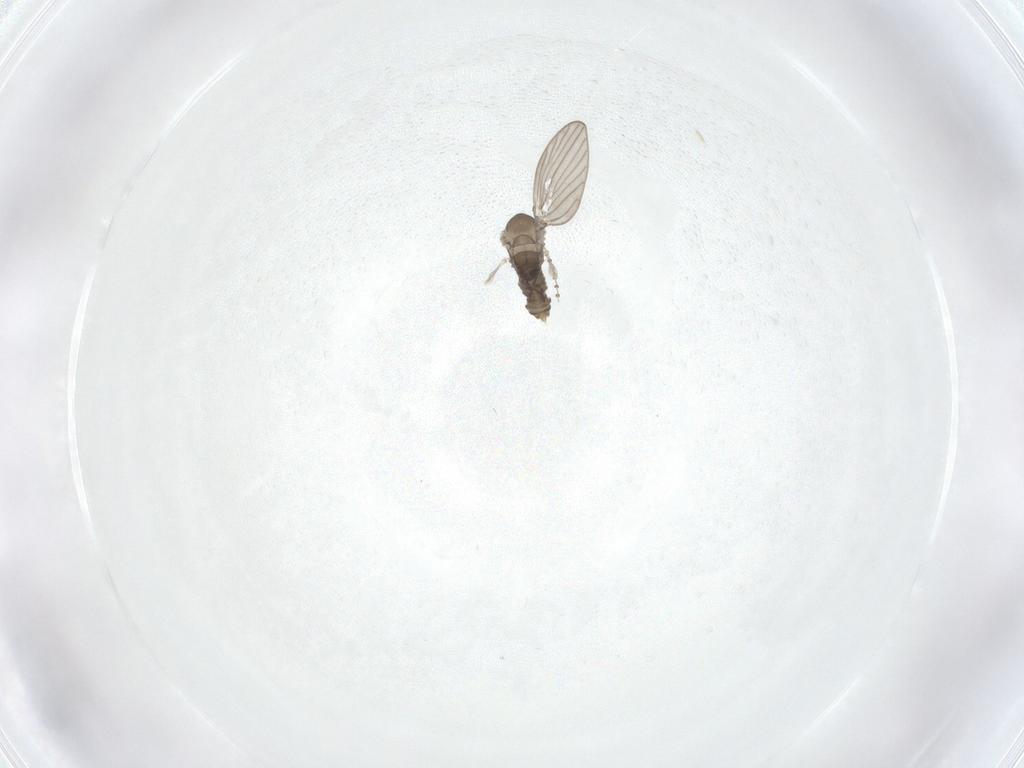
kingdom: Animalia
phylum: Arthropoda
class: Insecta
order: Diptera
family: Psychodidae
